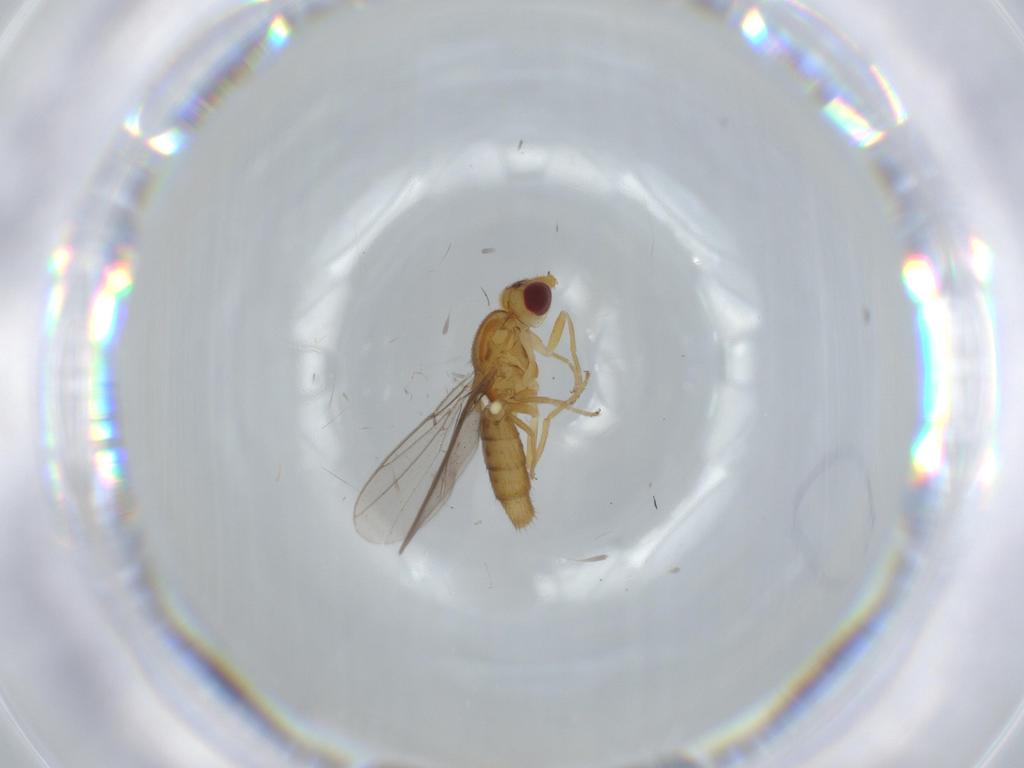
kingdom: Animalia
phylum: Arthropoda
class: Insecta
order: Diptera
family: Chloropidae
